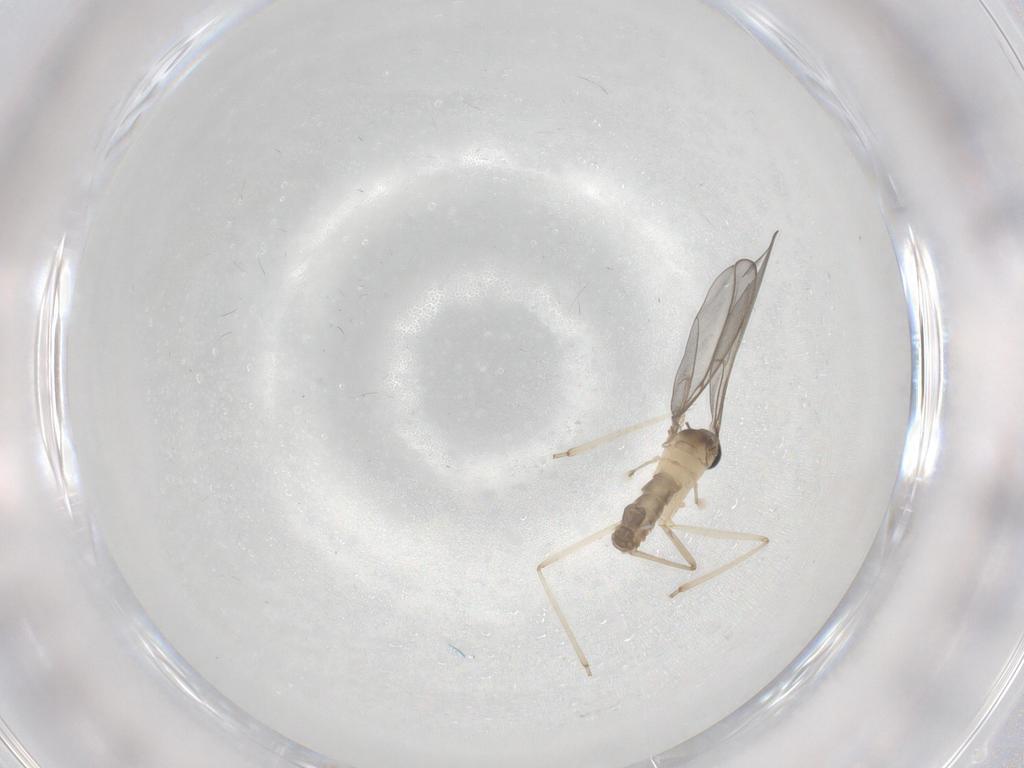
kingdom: Animalia
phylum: Arthropoda
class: Insecta
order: Diptera
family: Cecidomyiidae
